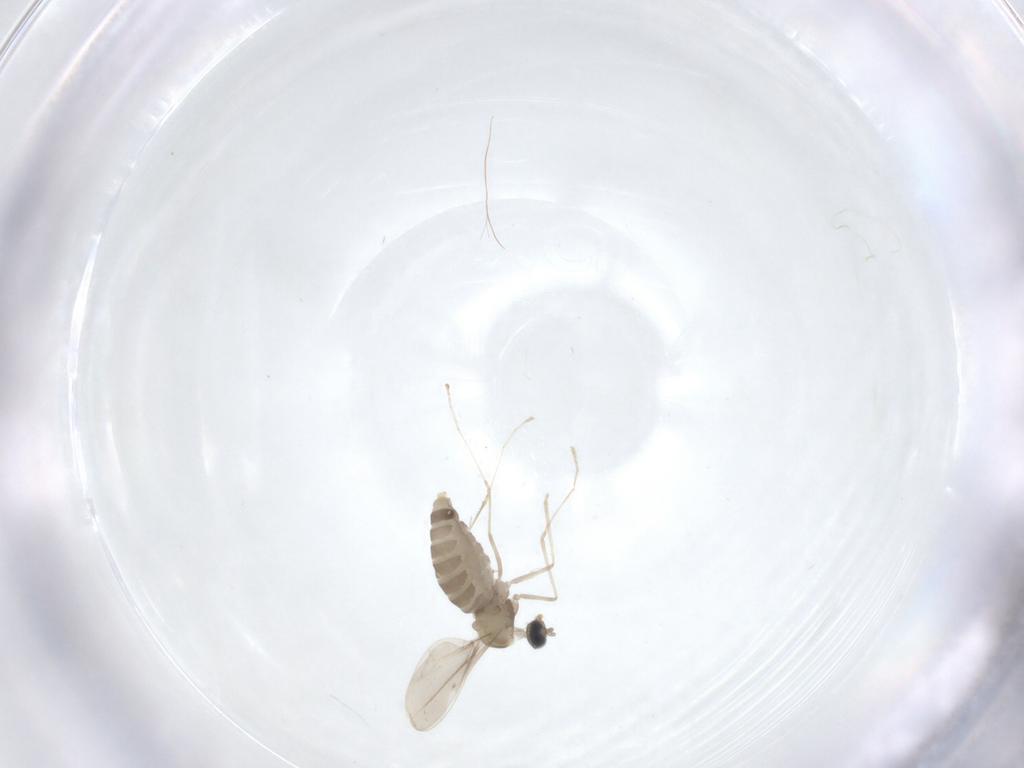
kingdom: Animalia
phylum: Arthropoda
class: Insecta
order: Diptera
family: Cecidomyiidae
